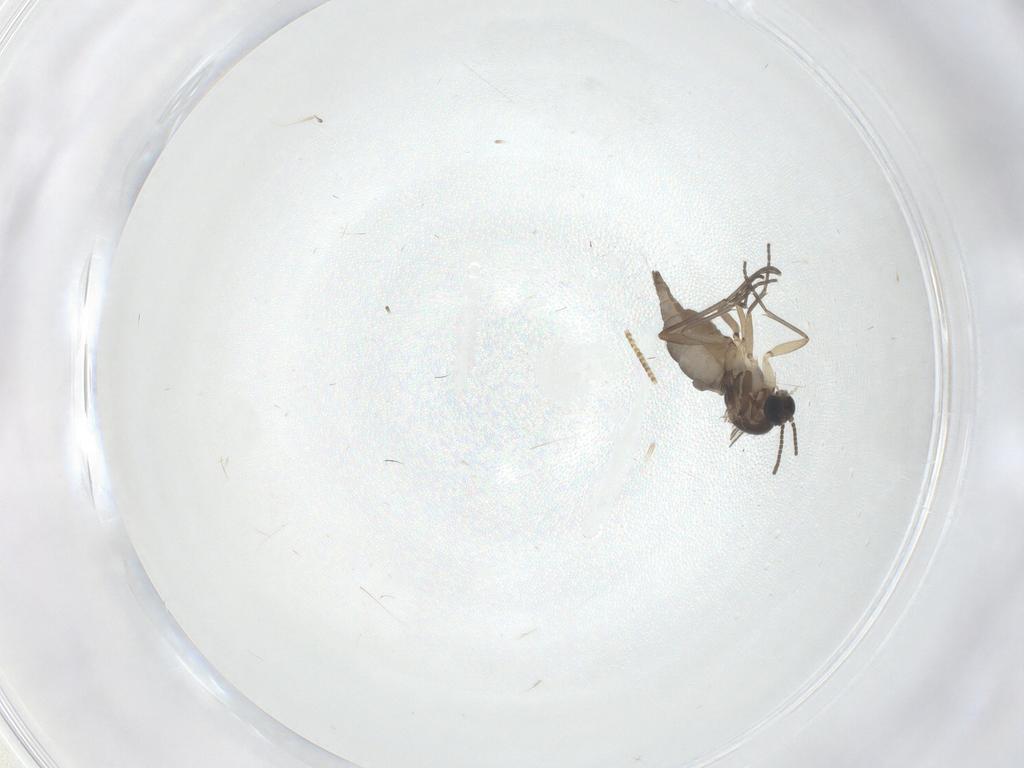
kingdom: Animalia
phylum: Arthropoda
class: Insecta
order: Diptera
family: Sciaridae
